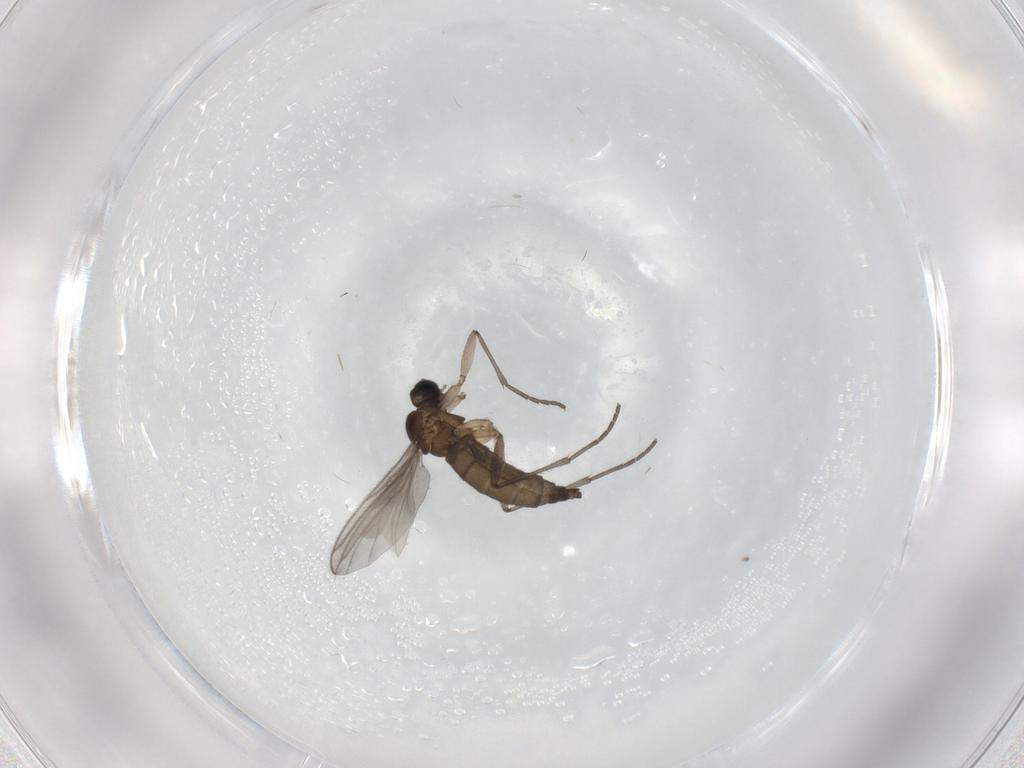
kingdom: Animalia
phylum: Arthropoda
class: Insecta
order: Diptera
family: Sciaridae
